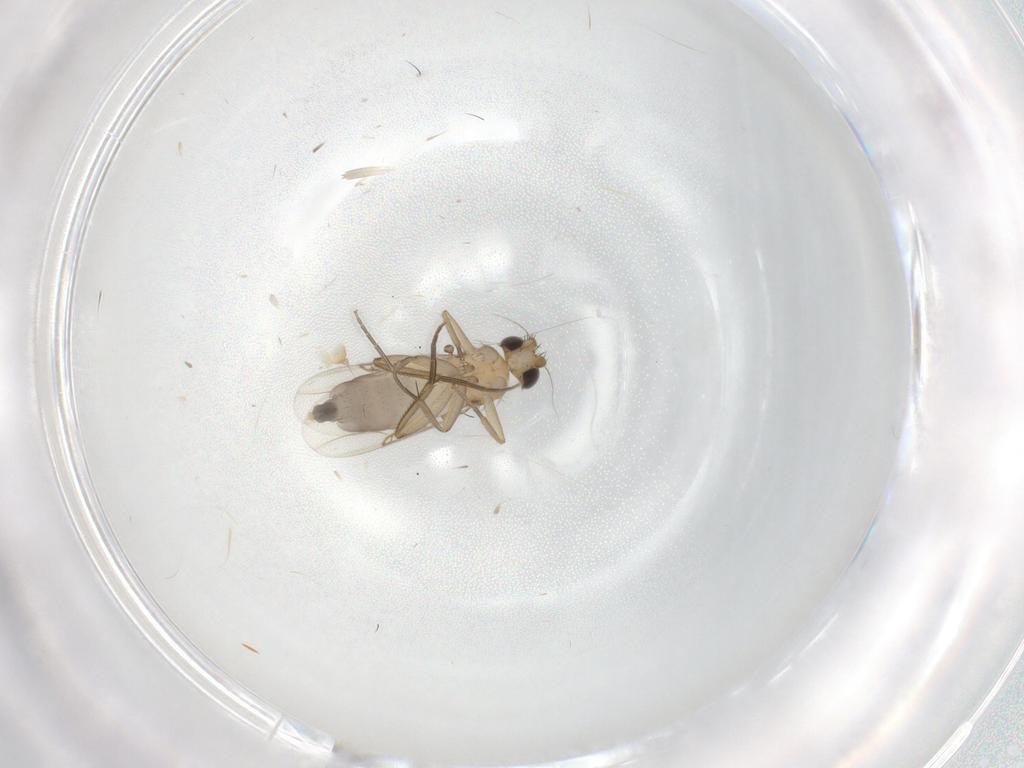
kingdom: Animalia
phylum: Arthropoda
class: Insecta
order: Diptera
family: Phoridae
